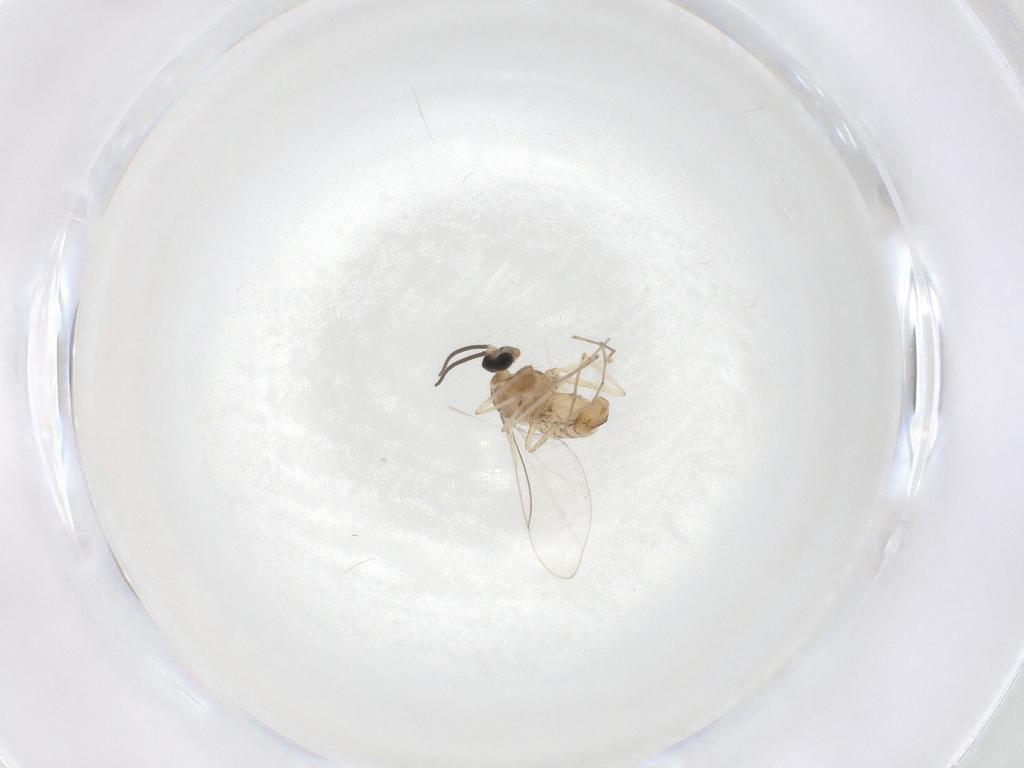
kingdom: Animalia
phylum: Arthropoda
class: Insecta
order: Diptera
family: Cecidomyiidae
